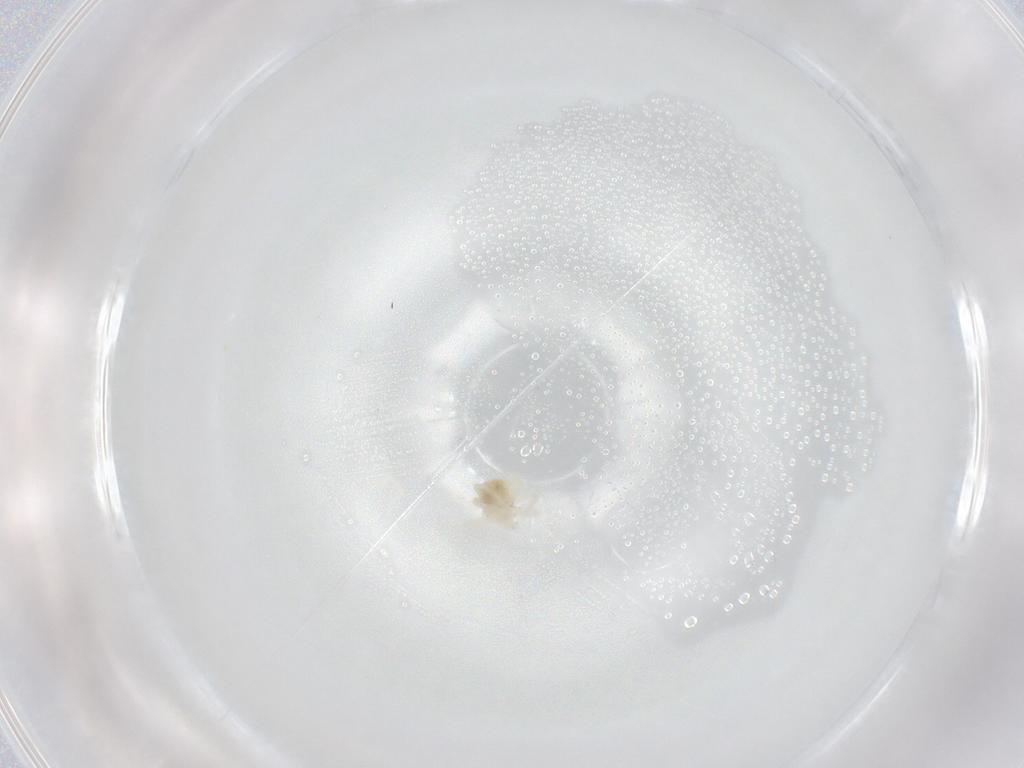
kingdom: Animalia
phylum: Arthropoda
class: Arachnida
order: Trombidiformes
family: Anystidae
